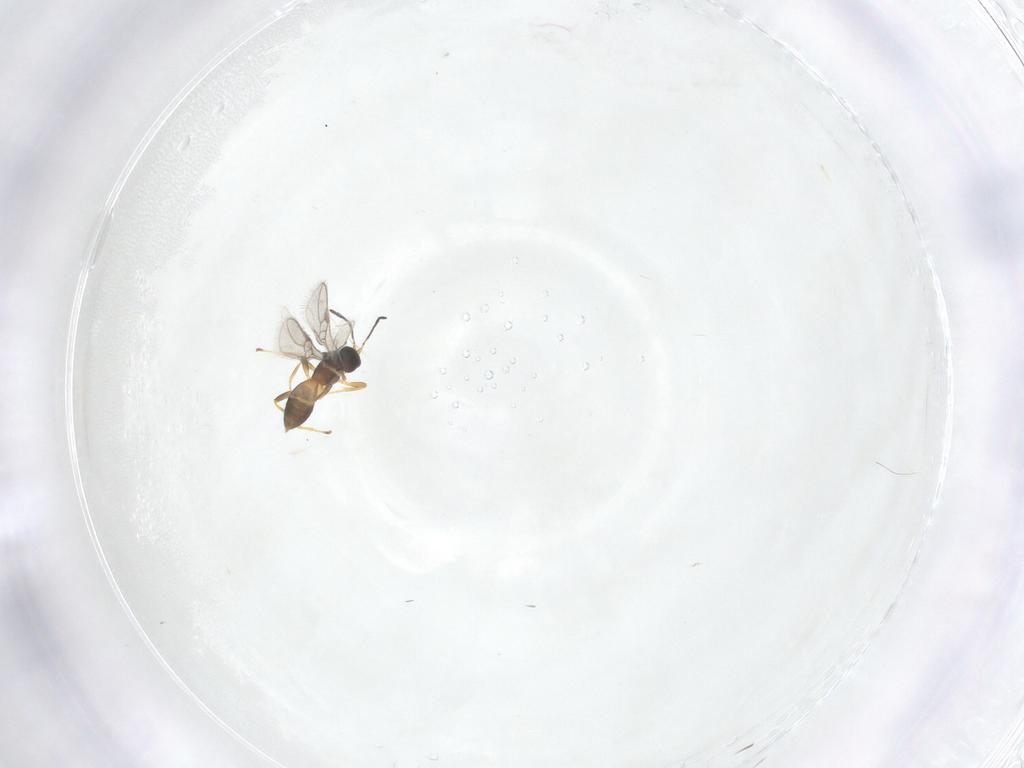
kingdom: Animalia
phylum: Arthropoda
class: Insecta
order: Hymenoptera
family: Braconidae
